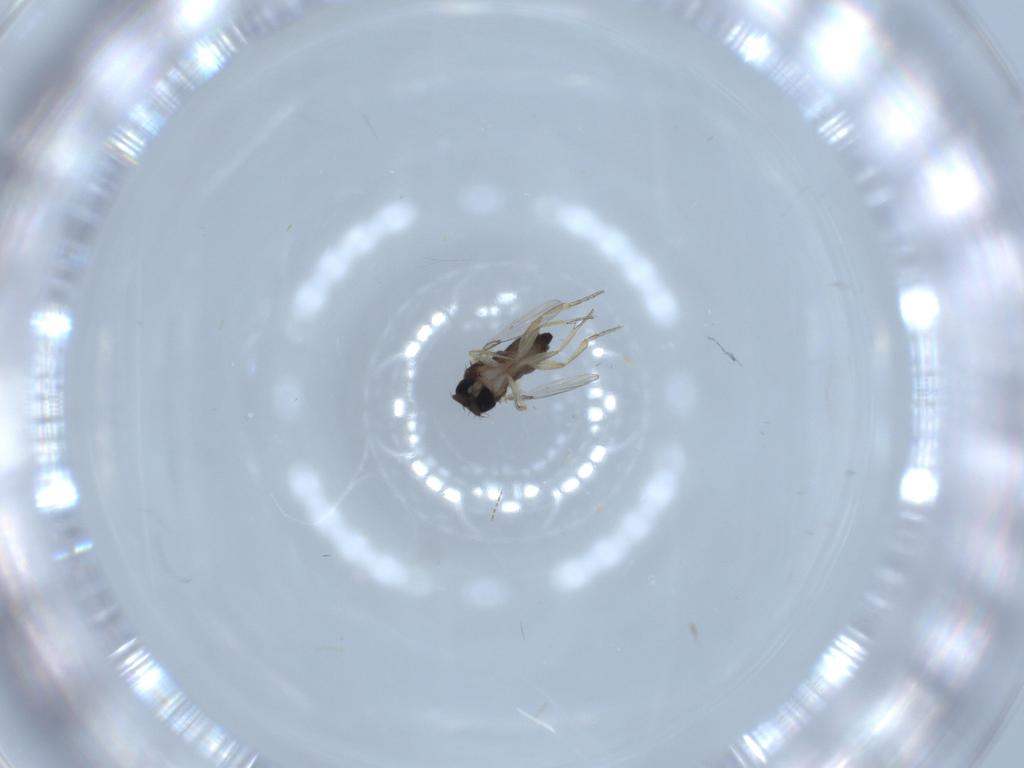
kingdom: Animalia
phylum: Arthropoda
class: Insecta
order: Diptera
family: Phoridae
